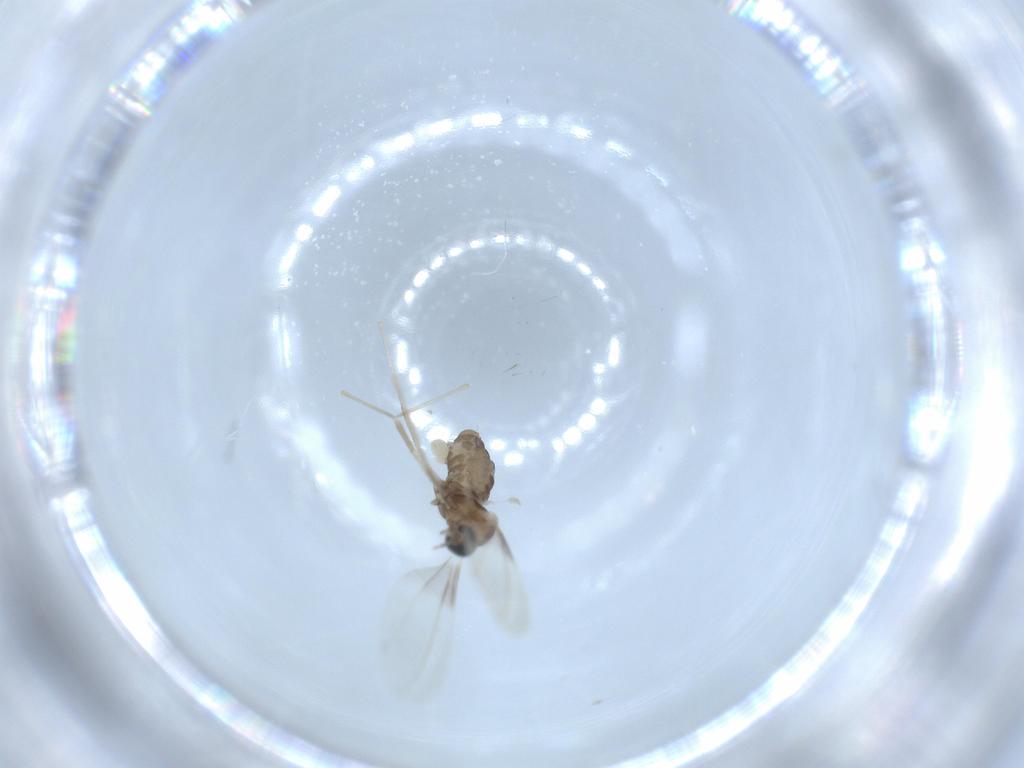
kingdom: Animalia
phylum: Arthropoda
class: Insecta
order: Diptera
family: Cecidomyiidae
